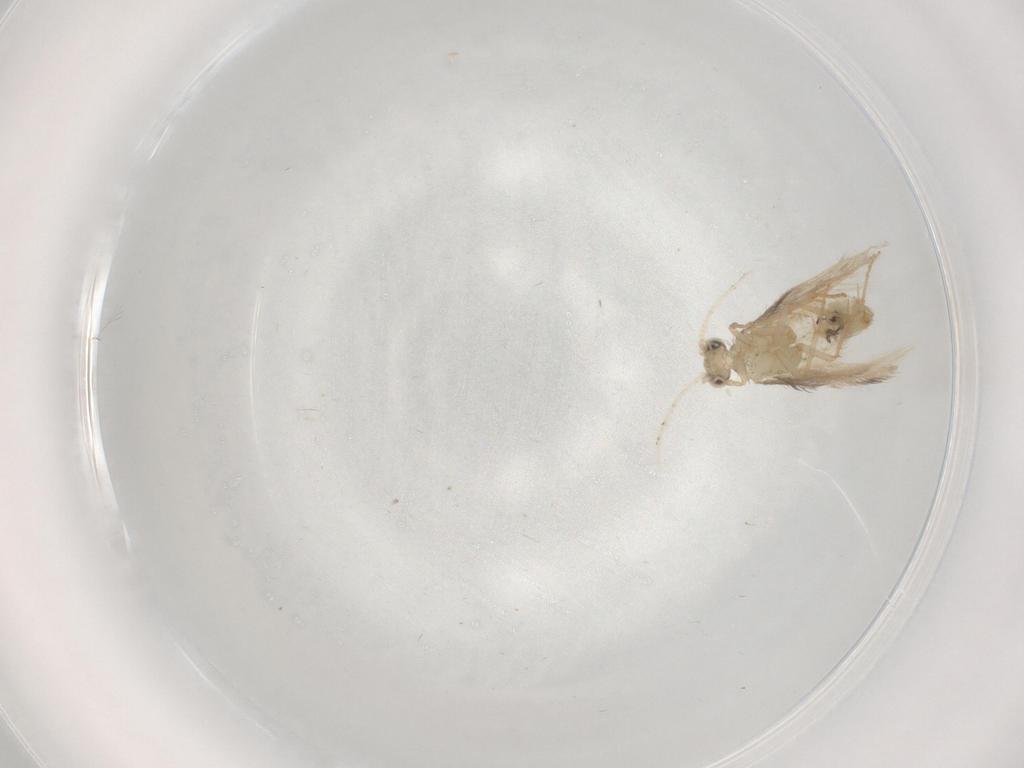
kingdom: Animalia
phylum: Arthropoda
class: Insecta
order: Trichoptera
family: Hydroptilidae
